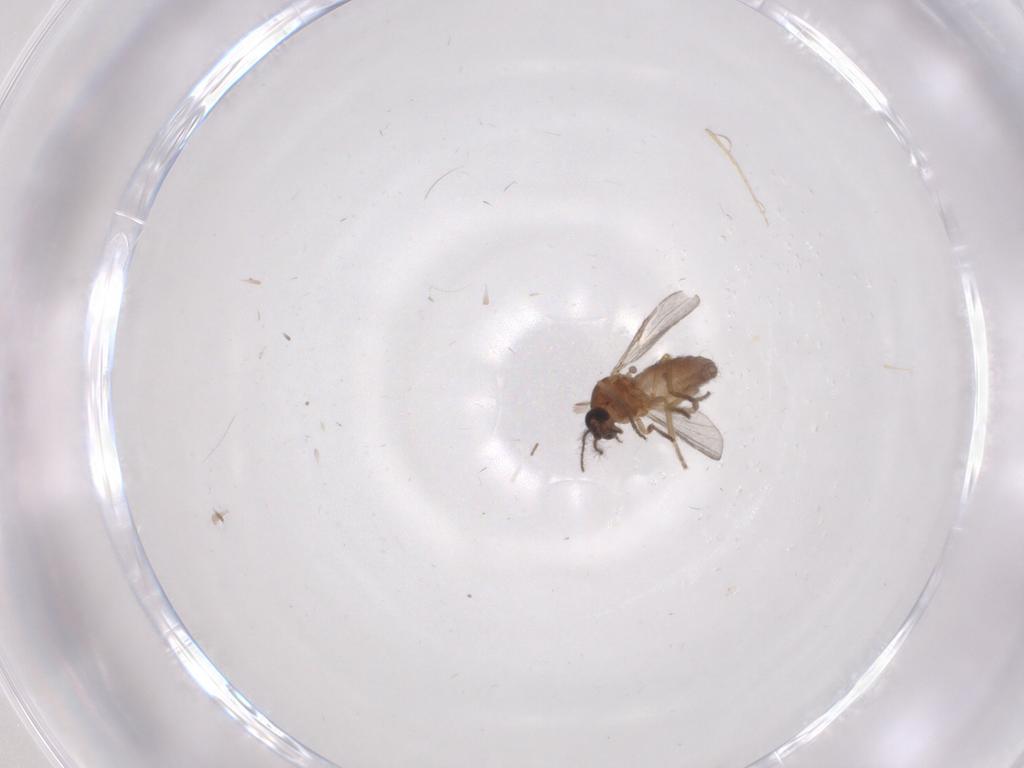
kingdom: Animalia
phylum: Arthropoda
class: Insecta
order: Diptera
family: Ceratopogonidae
